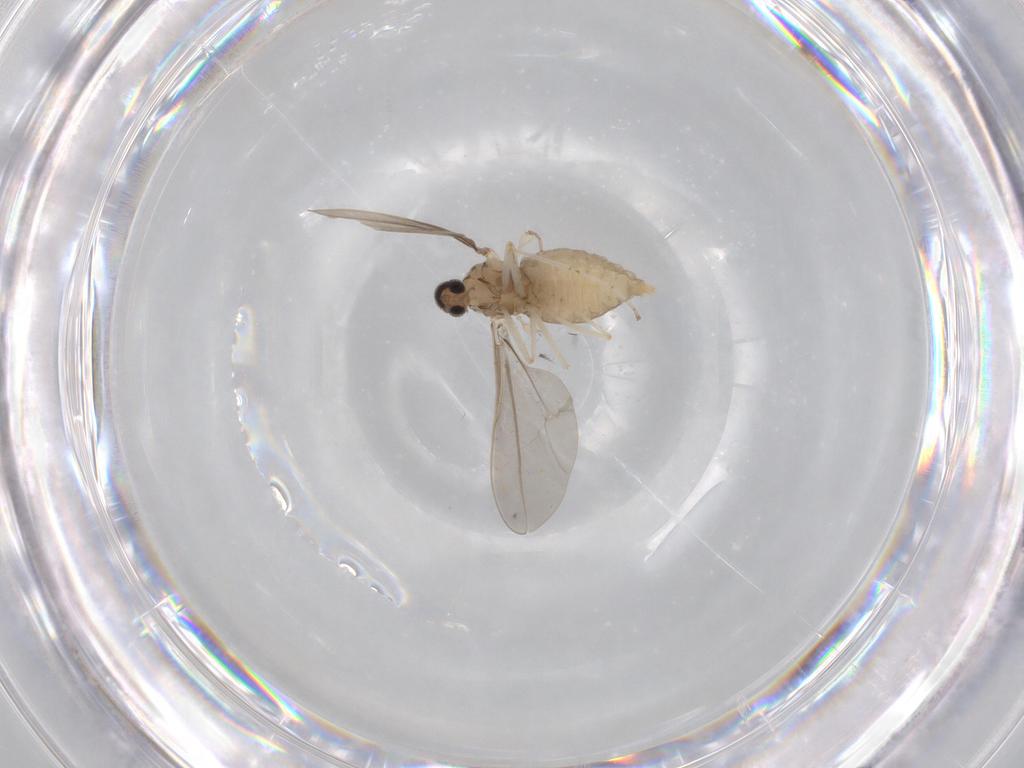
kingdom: Animalia
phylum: Arthropoda
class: Insecta
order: Diptera
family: Cecidomyiidae
